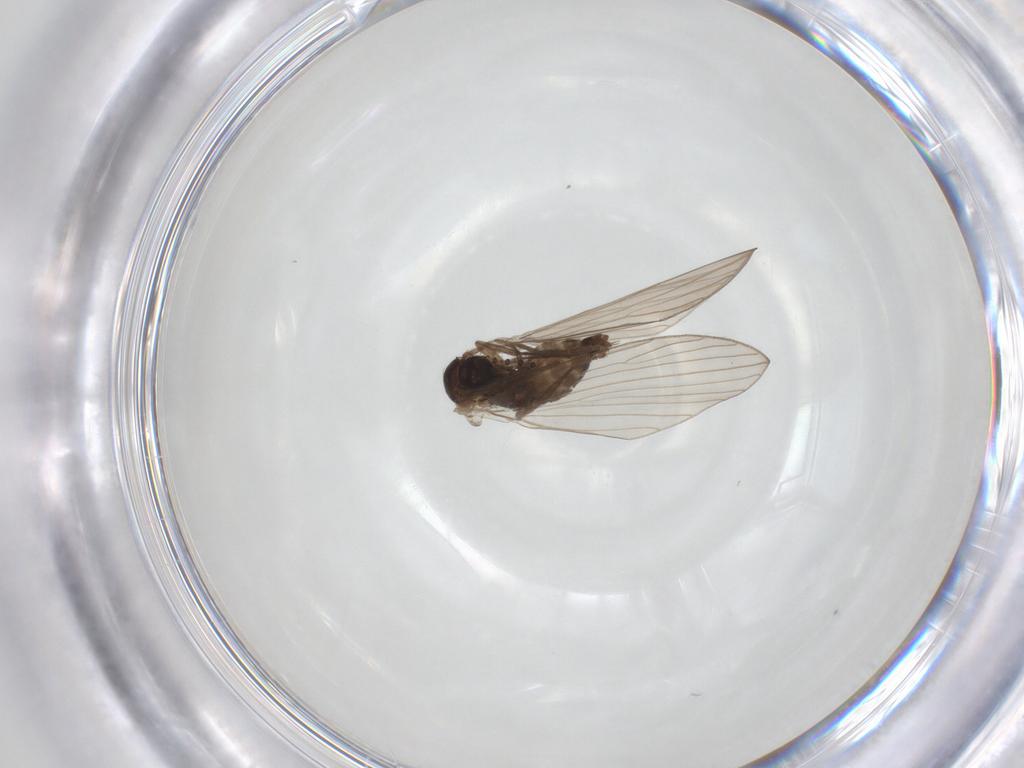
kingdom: Animalia
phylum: Arthropoda
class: Insecta
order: Diptera
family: Psychodidae
